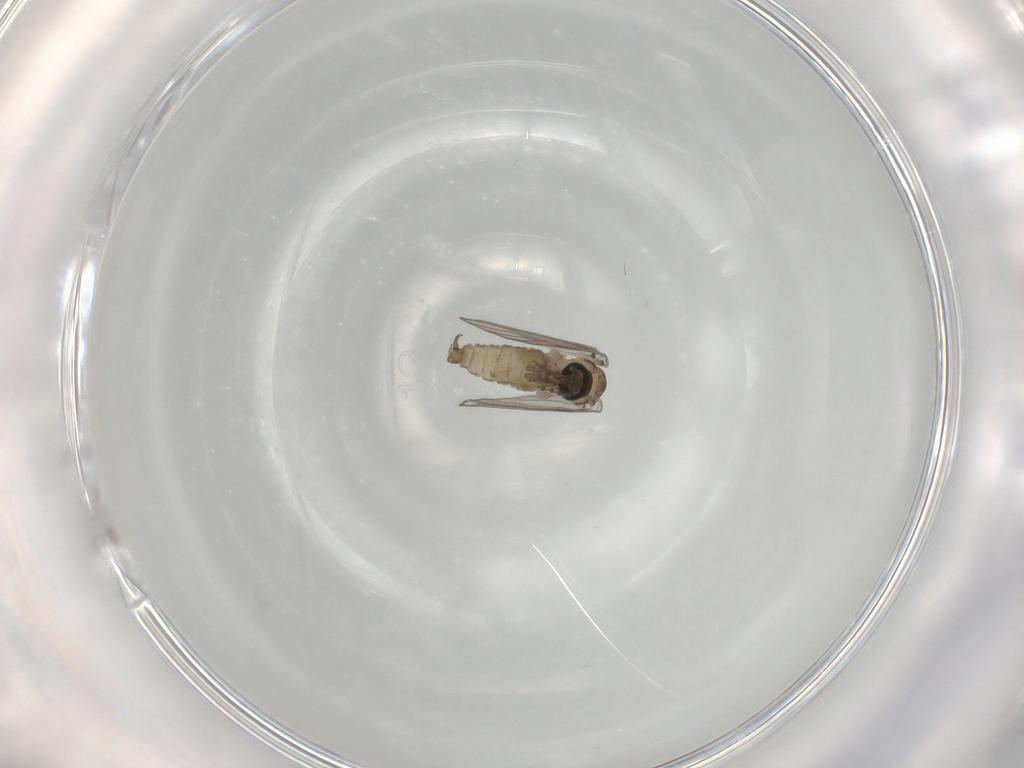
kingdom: Animalia
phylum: Arthropoda
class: Insecta
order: Diptera
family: Psychodidae
